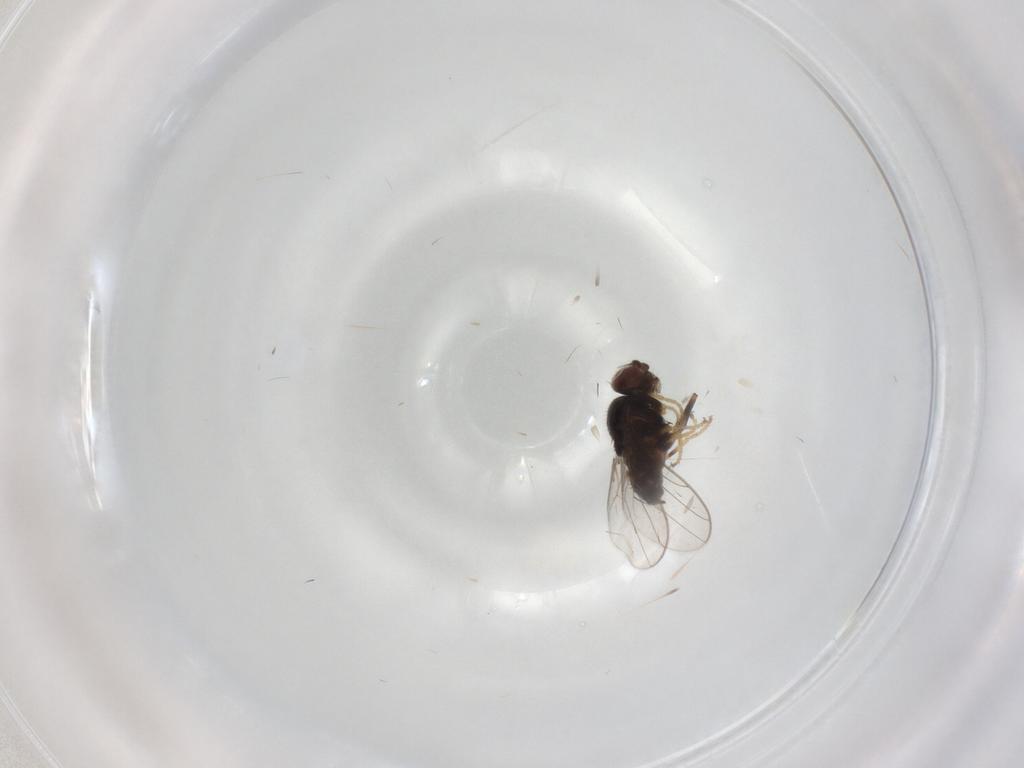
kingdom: Animalia
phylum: Arthropoda
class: Insecta
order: Diptera
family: Chloropidae
